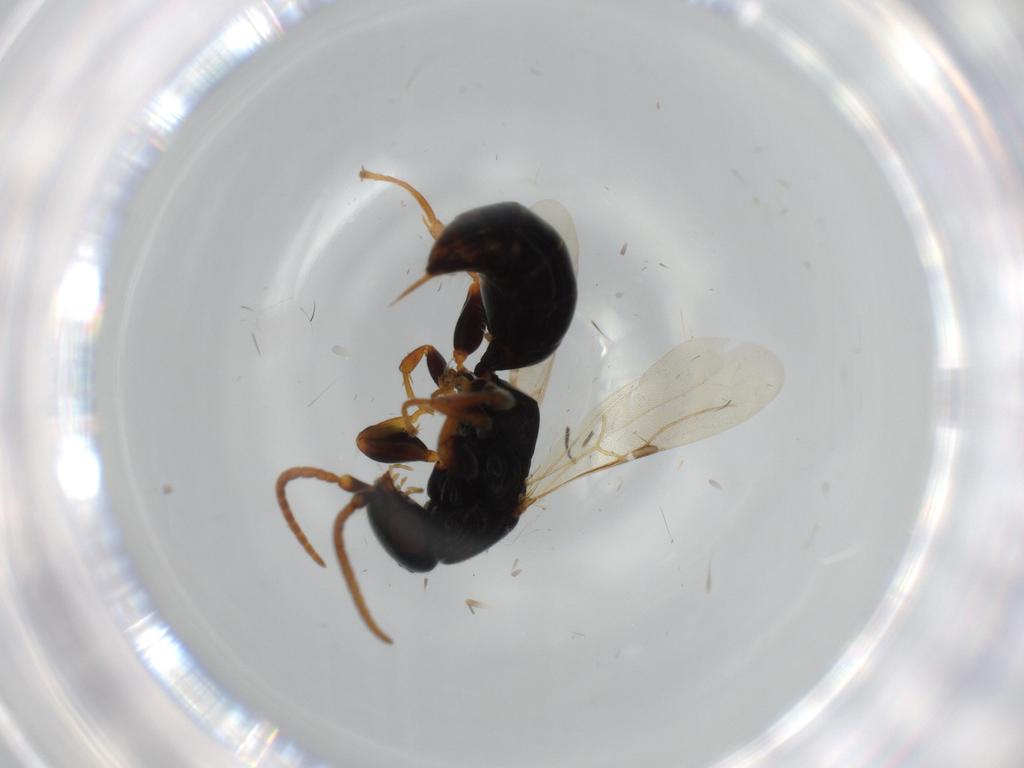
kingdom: Animalia
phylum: Arthropoda
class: Insecta
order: Hymenoptera
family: Bethylidae
